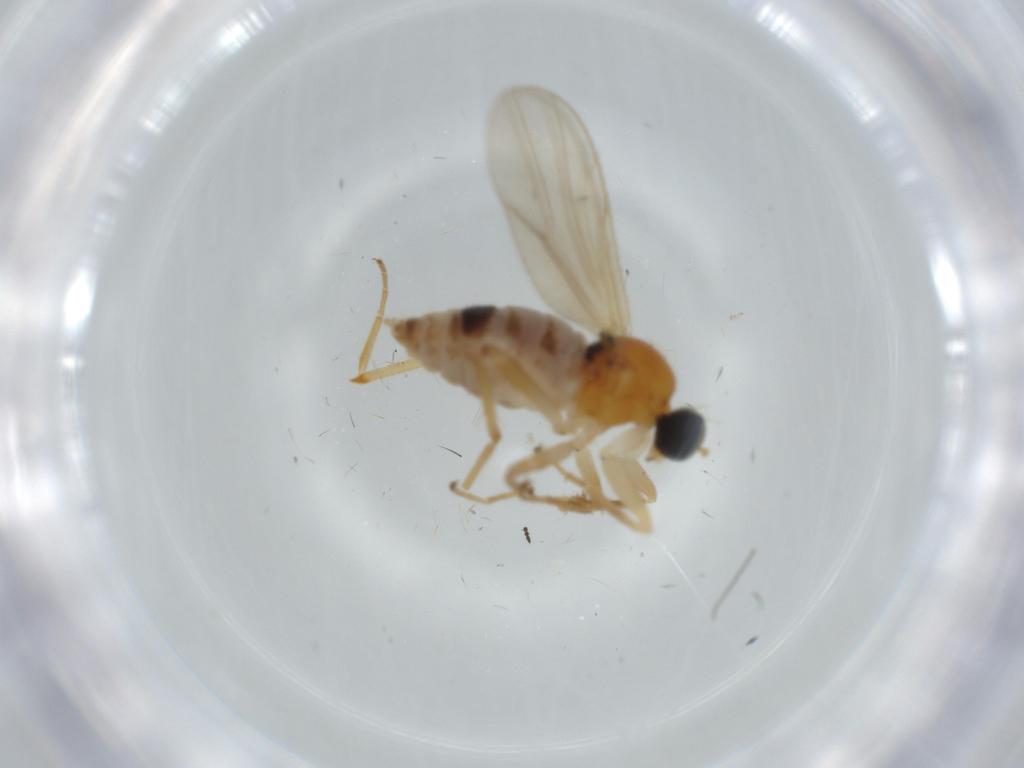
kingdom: Animalia
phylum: Arthropoda
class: Insecta
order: Diptera
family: Hybotidae
